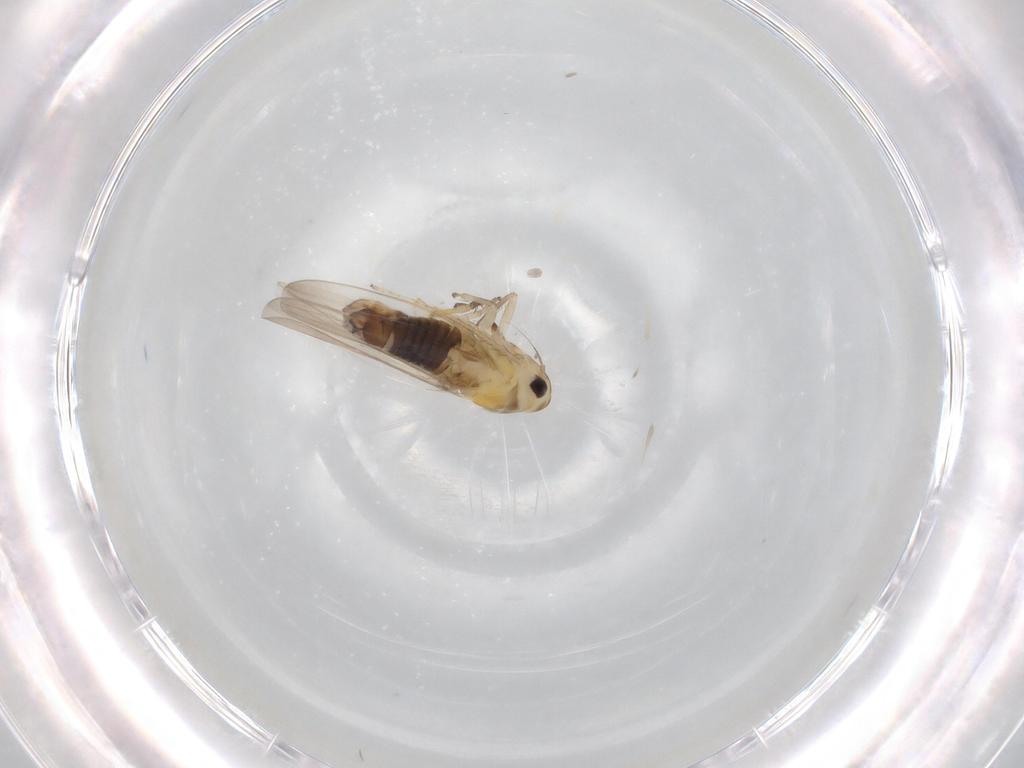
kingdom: Animalia
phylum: Arthropoda
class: Insecta
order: Hemiptera
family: Cicadellidae
